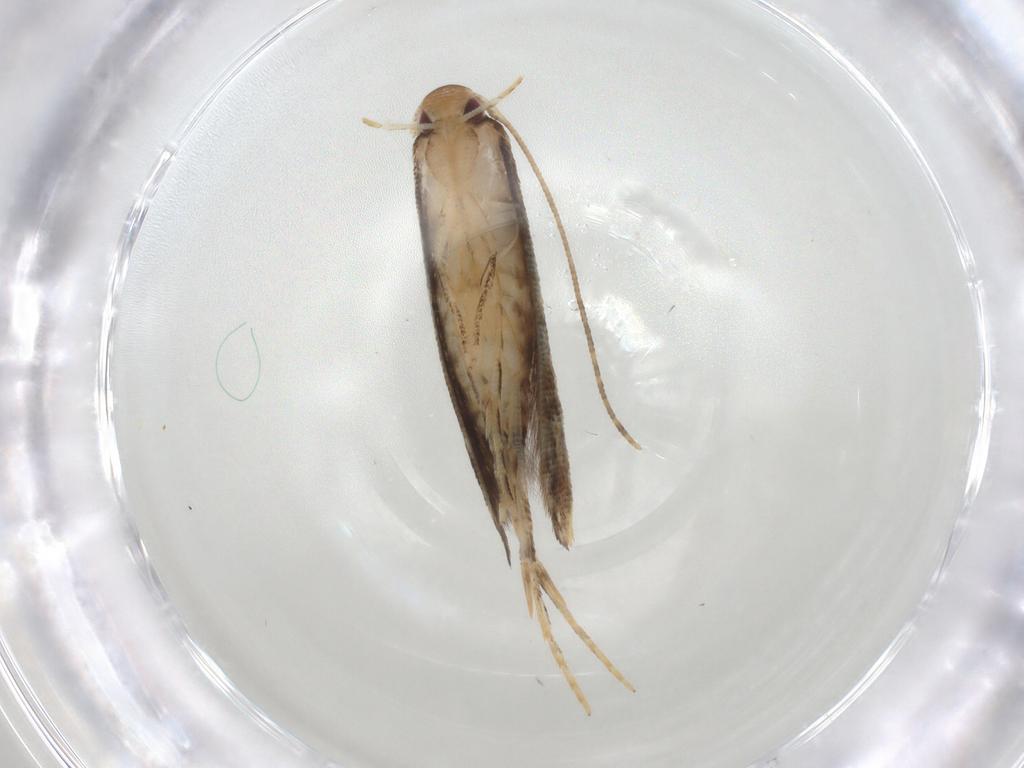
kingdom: Animalia
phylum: Arthropoda
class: Insecta
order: Lepidoptera
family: Momphidae
